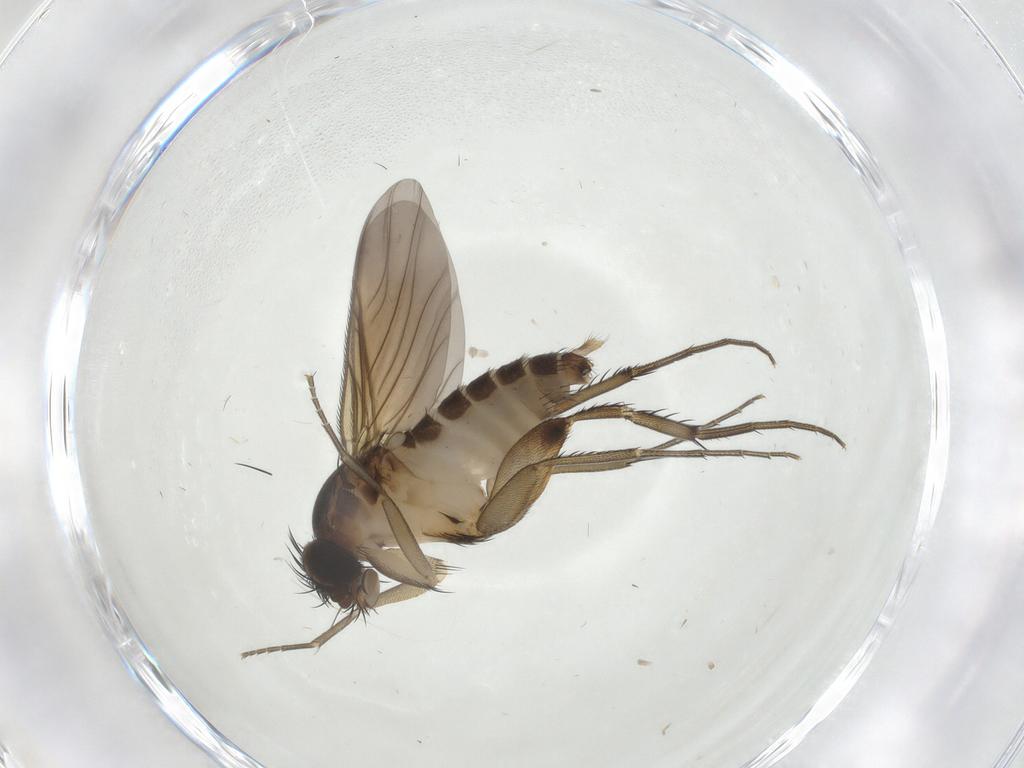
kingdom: Animalia
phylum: Arthropoda
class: Insecta
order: Diptera
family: Phoridae
